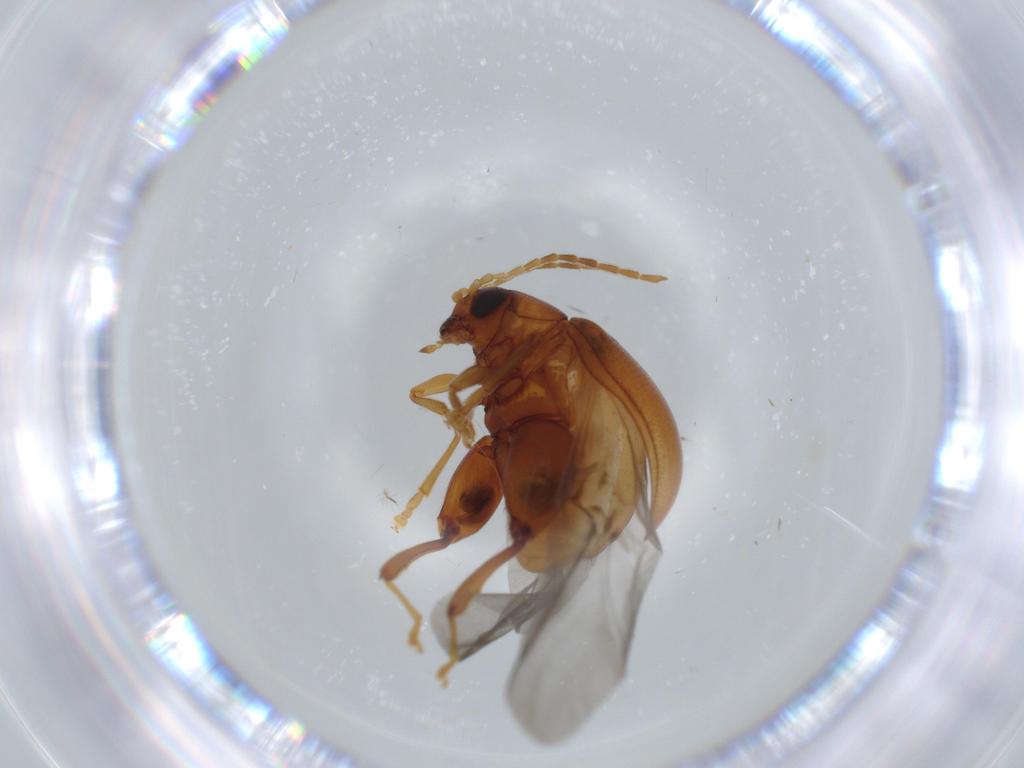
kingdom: Animalia
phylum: Arthropoda
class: Insecta
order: Coleoptera
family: Chrysomelidae
